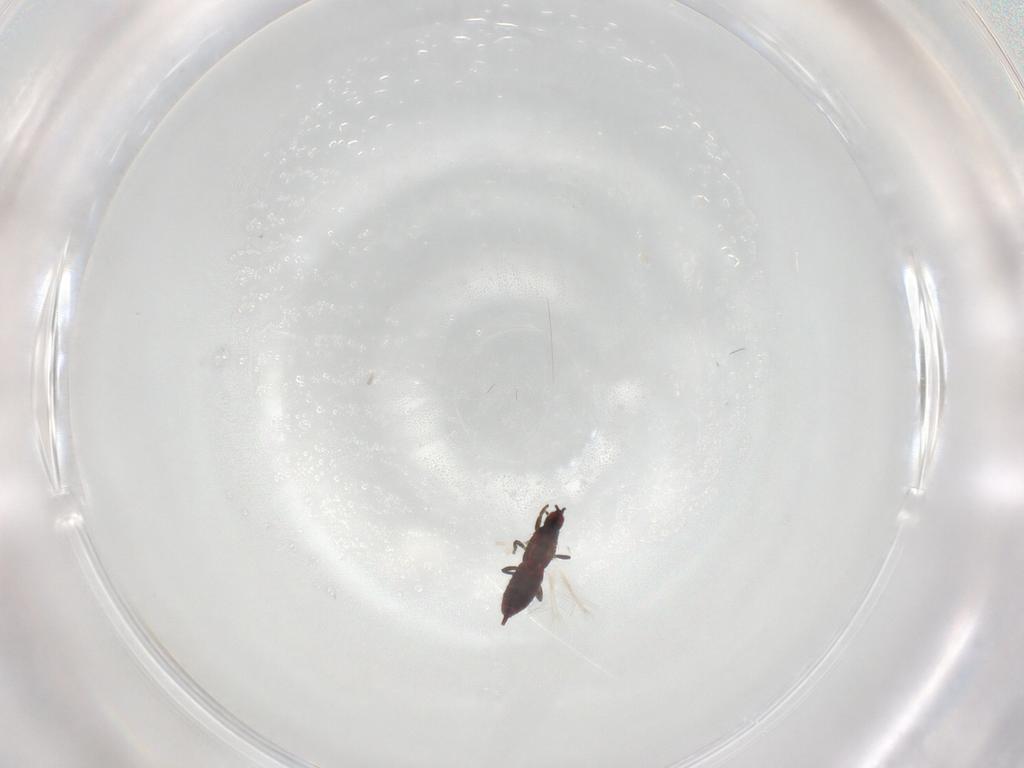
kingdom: Animalia
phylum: Arthropoda
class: Insecta
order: Thysanoptera
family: Phlaeothripidae
